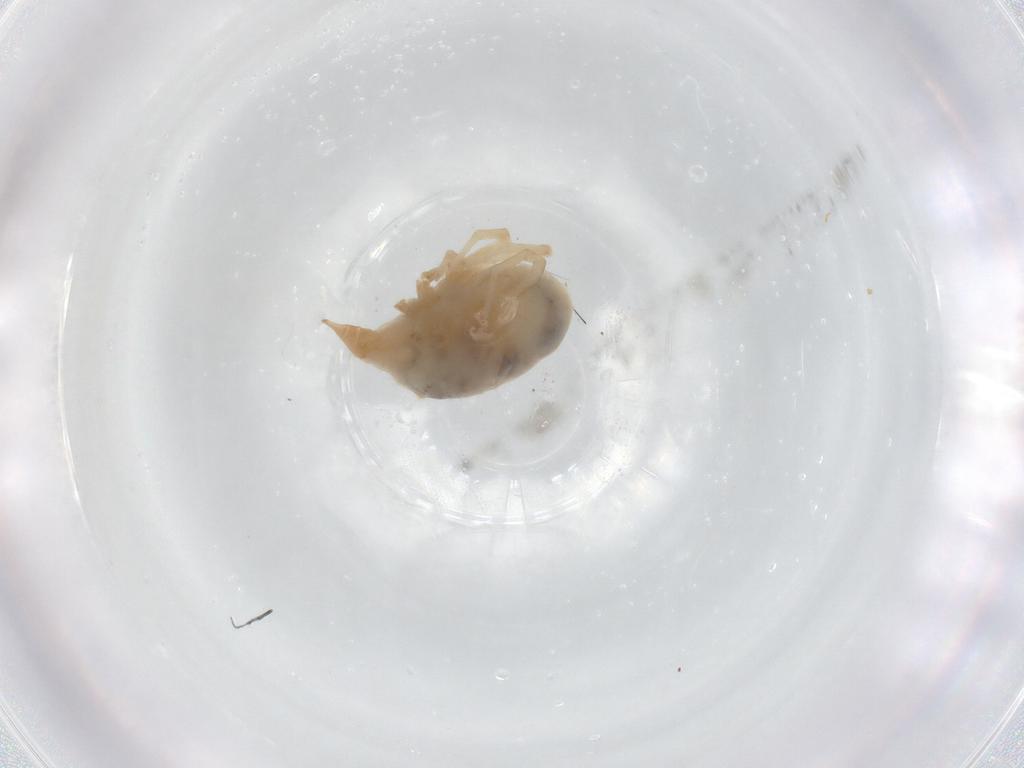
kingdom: Animalia
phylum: Arthropoda
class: Arachnida
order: Trombidiformes
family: Bdellidae
